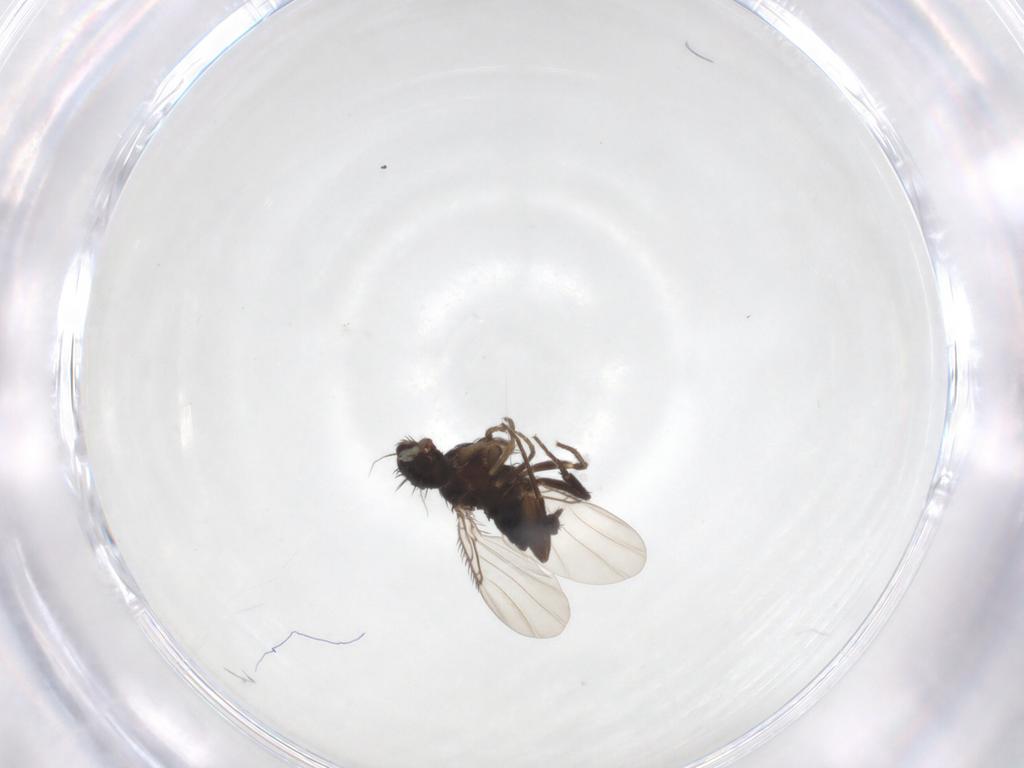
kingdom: Animalia
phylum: Arthropoda
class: Insecta
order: Diptera
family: Phoridae
